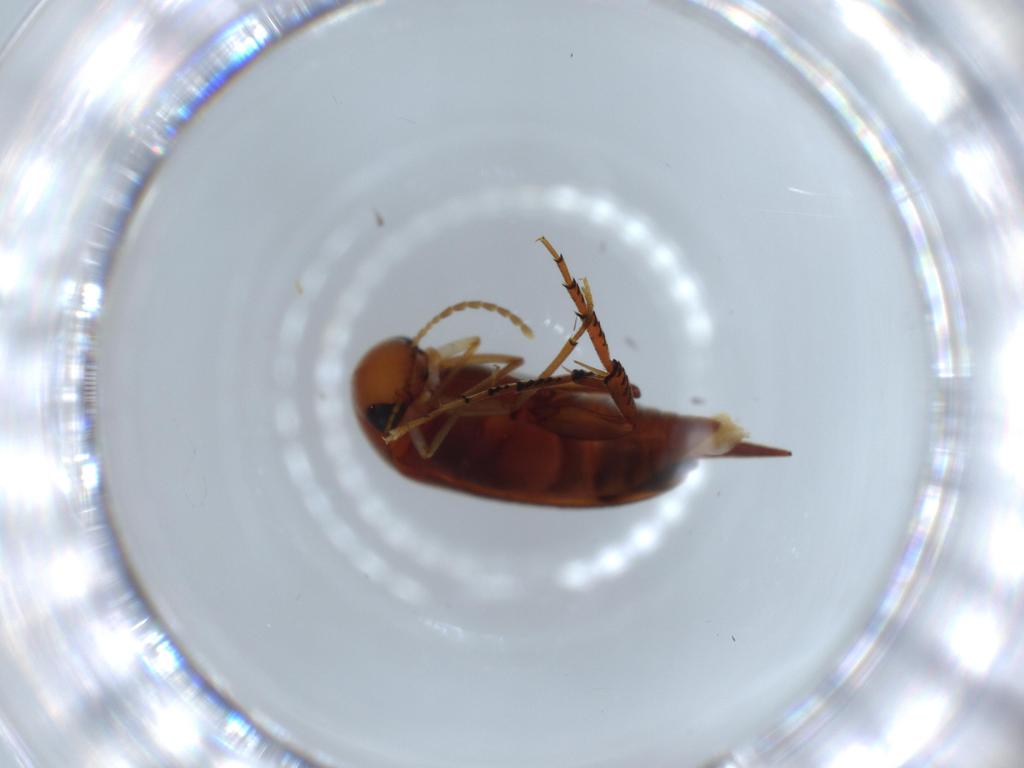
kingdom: Animalia
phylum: Arthropoda
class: Insecta
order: Coleoptera
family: Mordellidae
